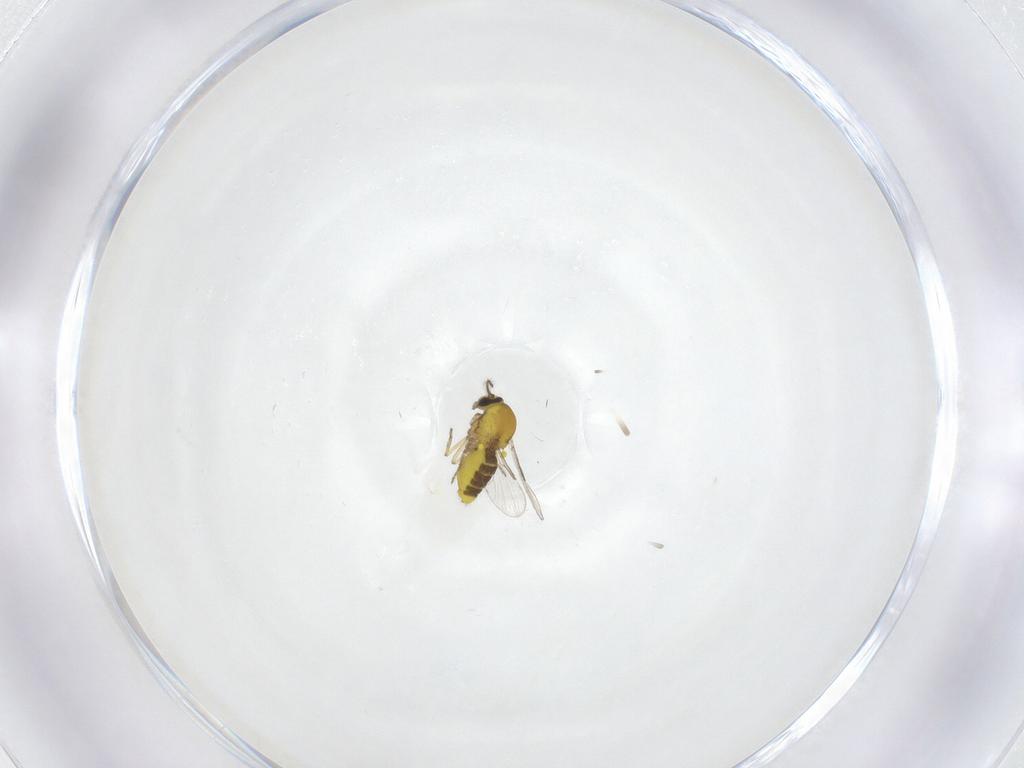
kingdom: Animalia
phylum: Arthropoda
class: Insecta
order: Diptera
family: Ceratopogonidae
